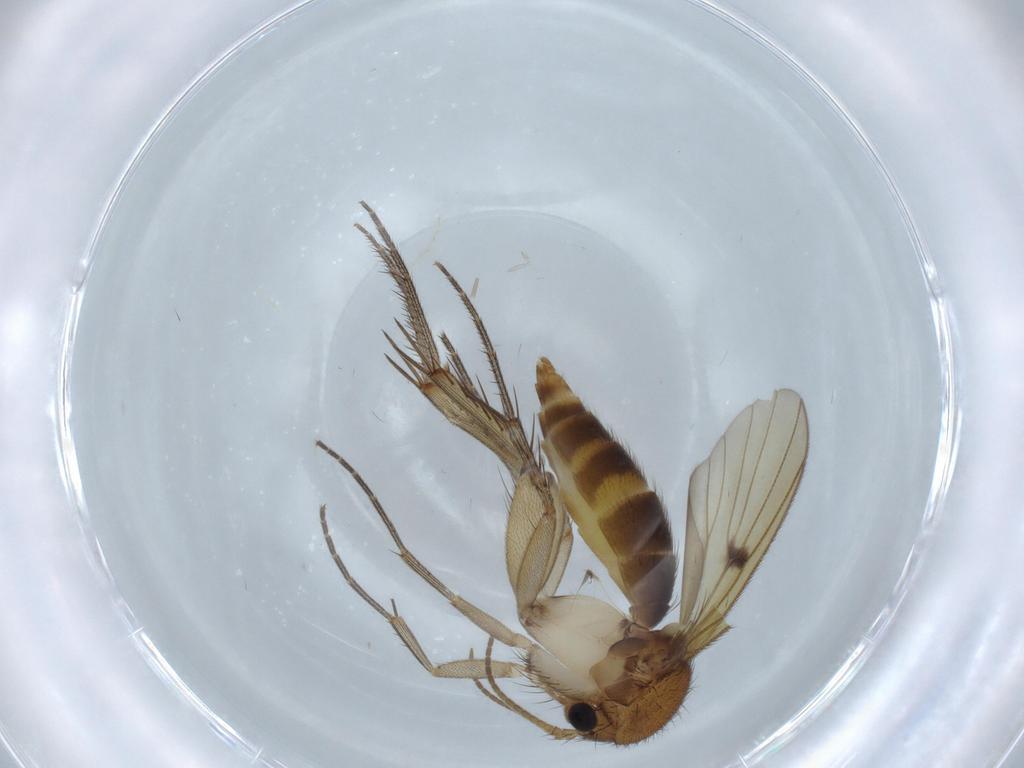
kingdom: Animalia
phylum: Arthropoda
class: Insecta
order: Diptera
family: Mycetophilidae
